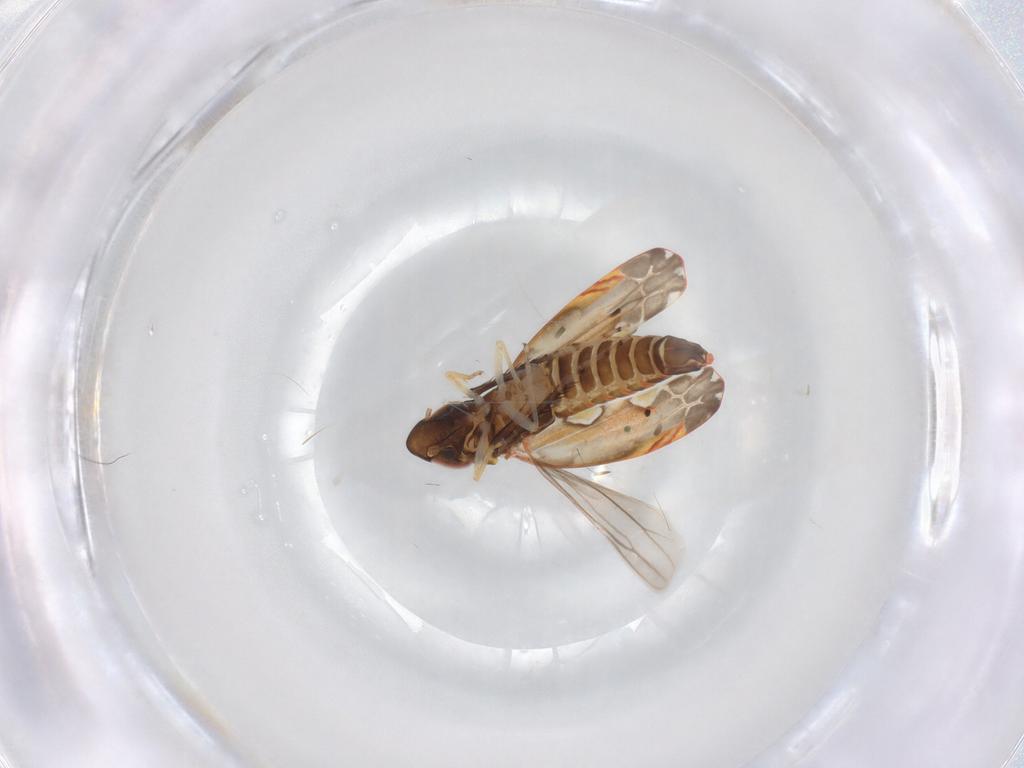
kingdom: Animalia
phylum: Arthropoda
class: Insecta
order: Hemiptera
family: Cicadellidae
